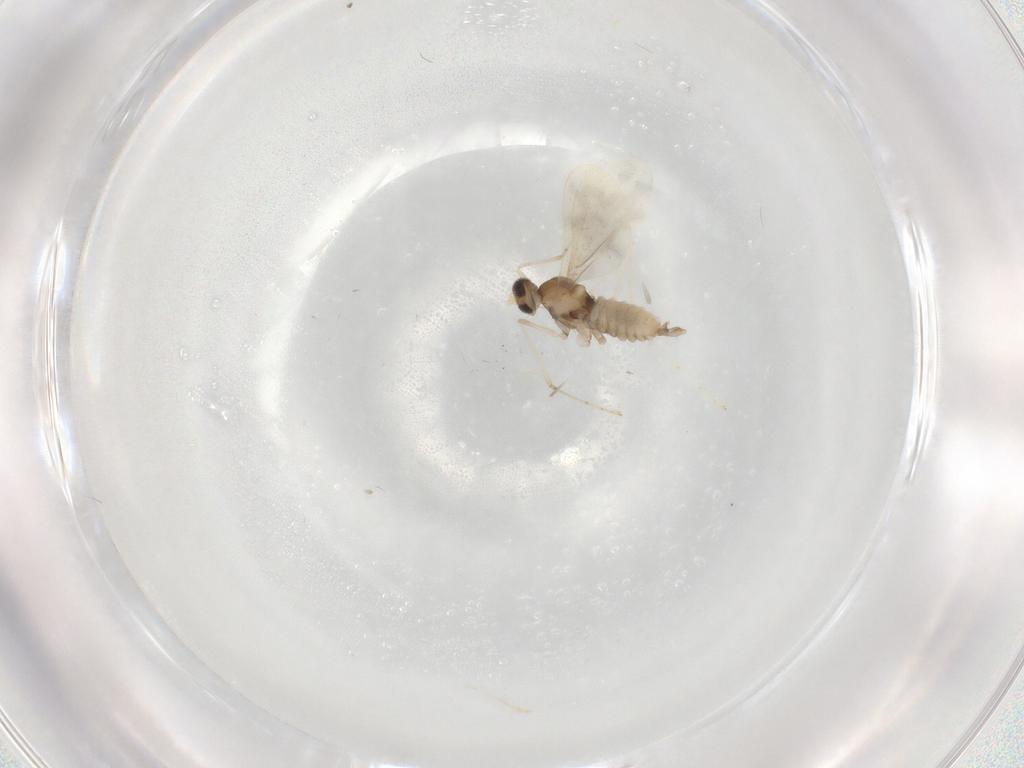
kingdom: Animalia
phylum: Arthropoda
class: Insecta
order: Diptera
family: Cecidomyiidae
